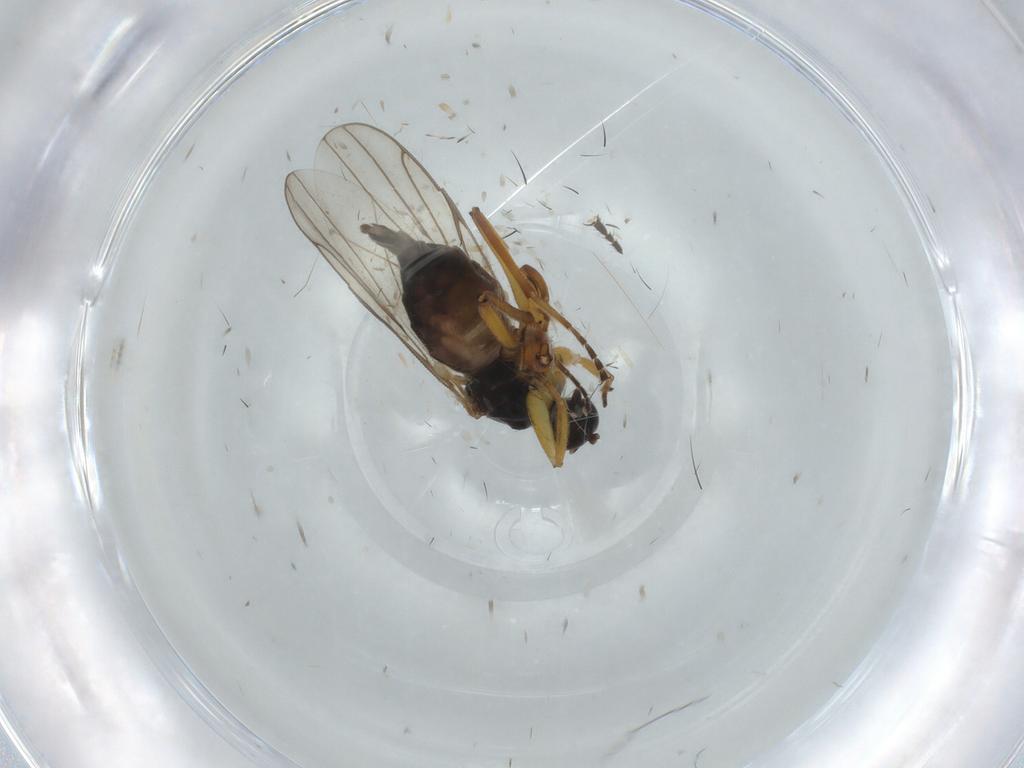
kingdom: Animalia
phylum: Arthropoda
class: Insecta
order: Diptera
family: Hybotidae
